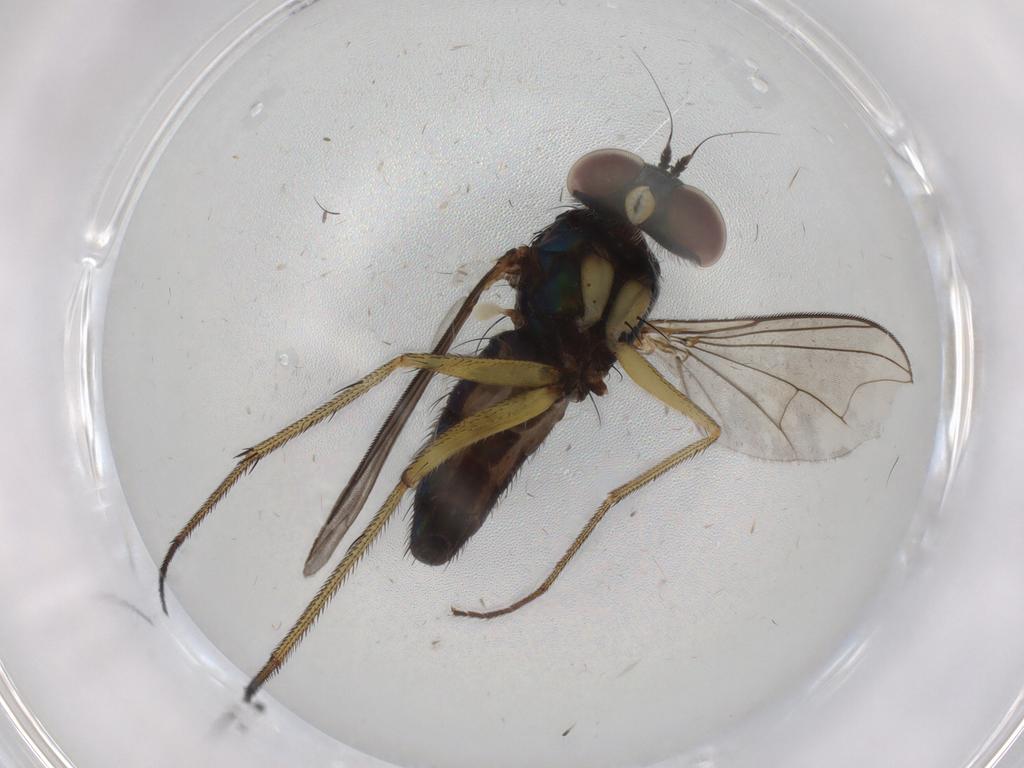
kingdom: Animalia
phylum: Arthropoda
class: Insecta
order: Diptera
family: Dolichopodidae
